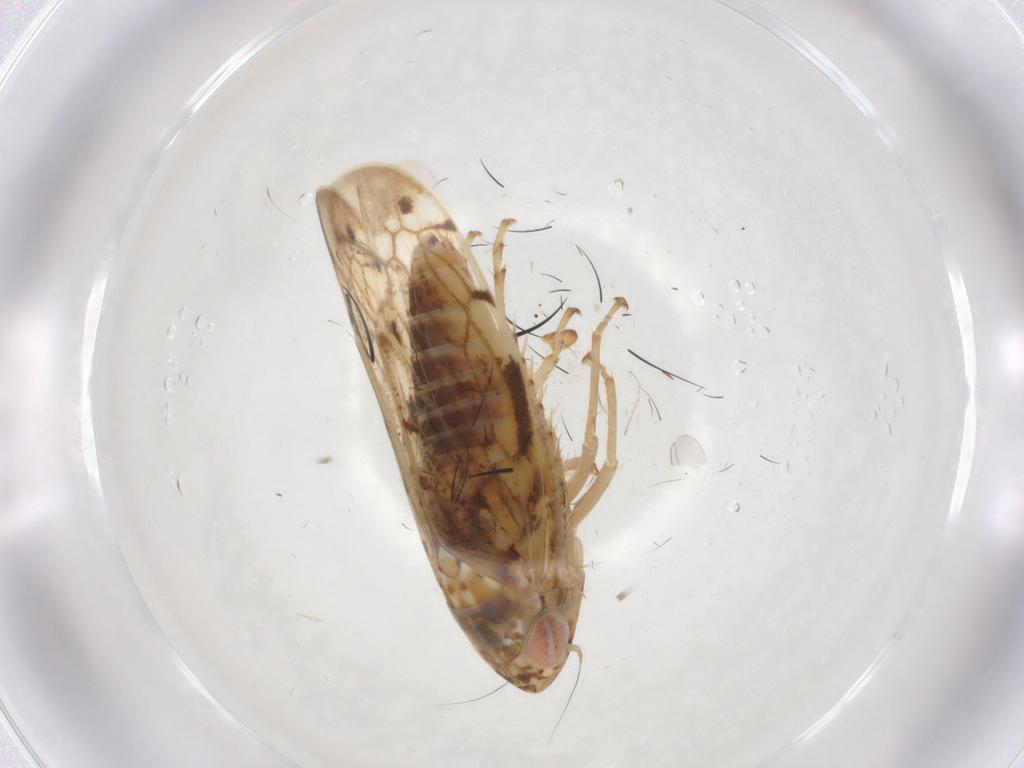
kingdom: Animalia
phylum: Arthropoda
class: Insecta
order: Hemiptera
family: Cicadellidae
